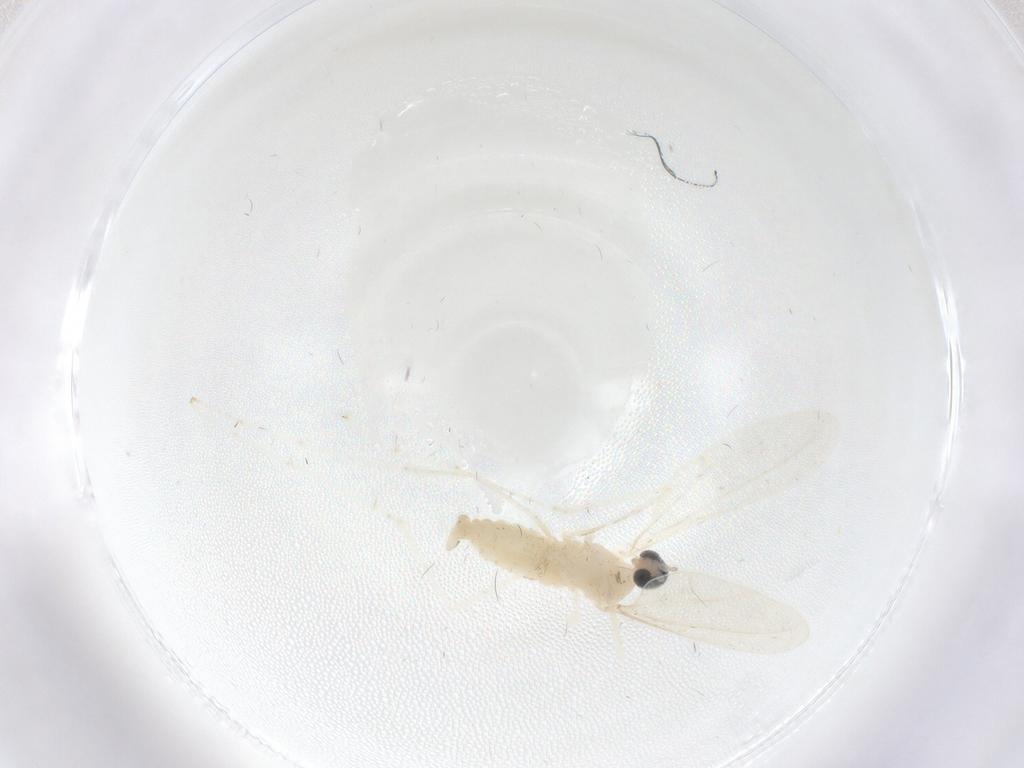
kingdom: Animalia
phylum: Arthropoda
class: Insecta
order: Diptera
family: Cecidomyiidae
